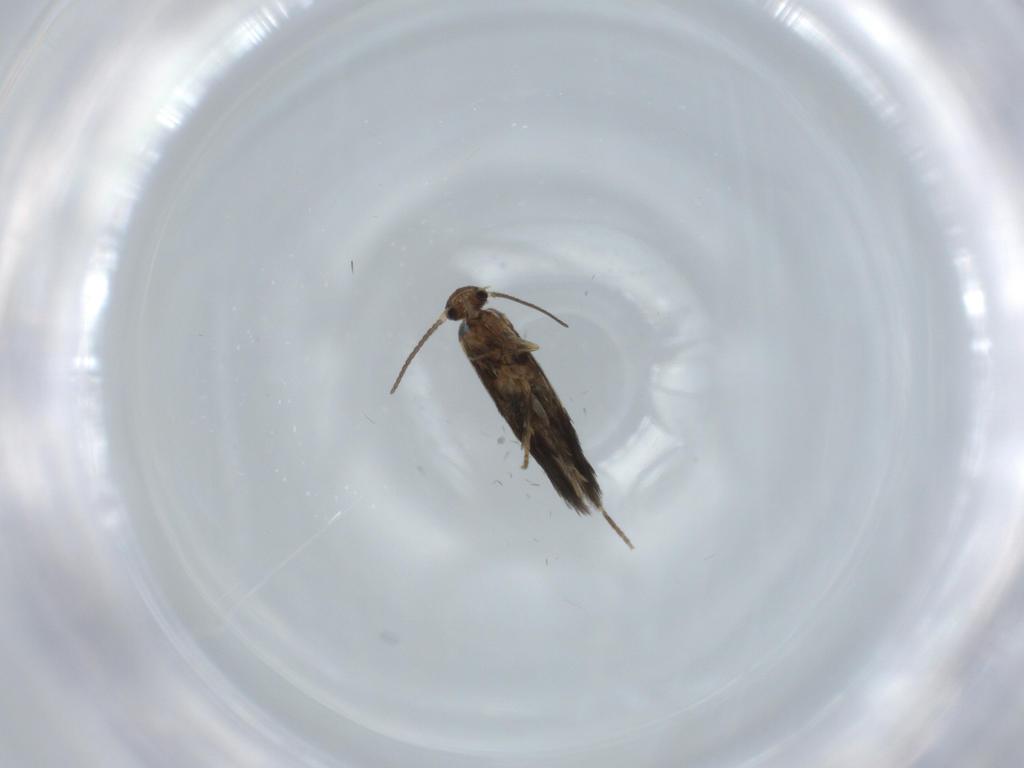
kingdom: Animalia
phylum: Arthropoda
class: Insecta
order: Lepidoptera
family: Heliozelidae
